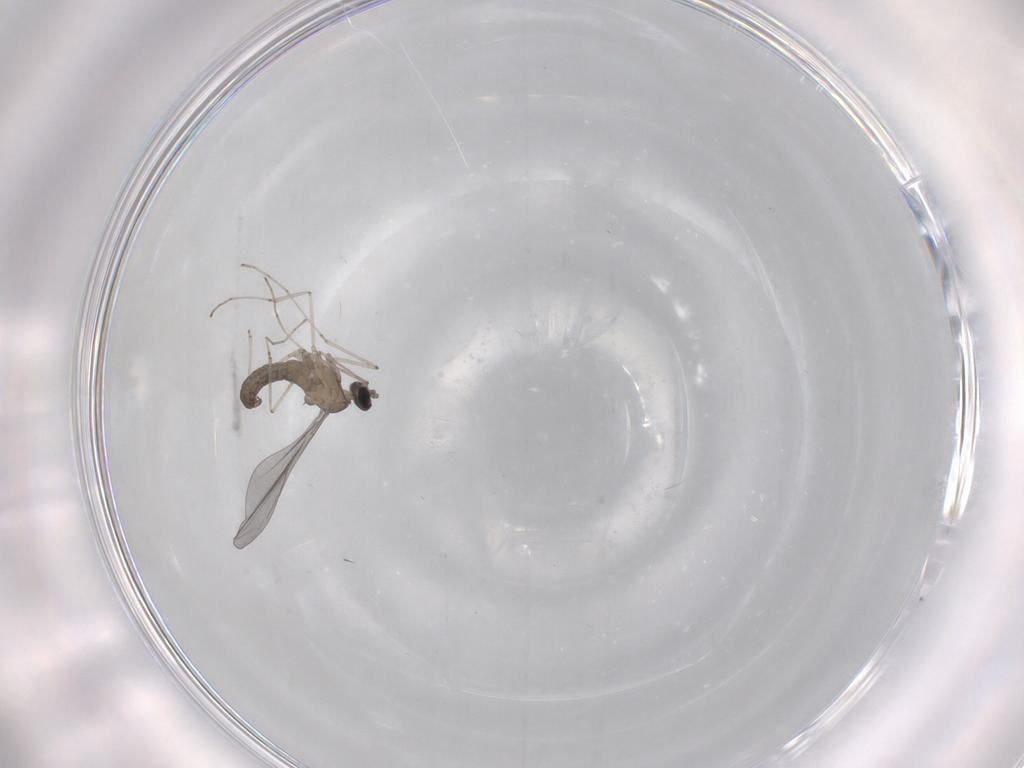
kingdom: Animalia
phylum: Arthropoda
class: Insecta
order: Diptera
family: Cecidomyiidae
